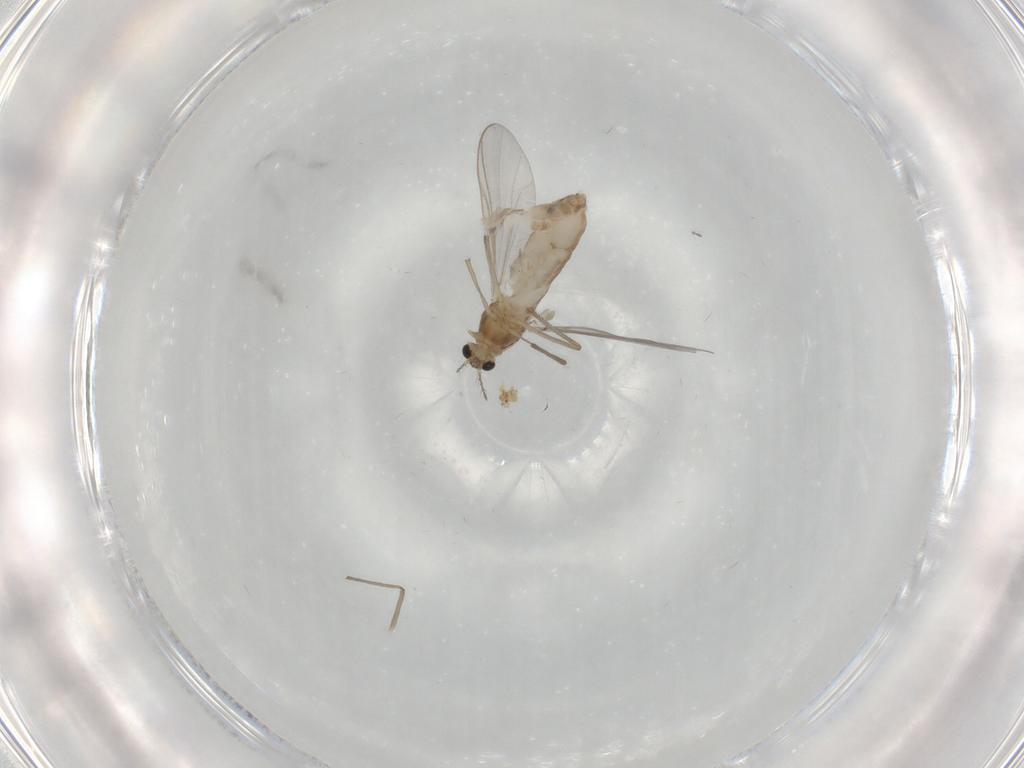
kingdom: Animalia
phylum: Arthropoda
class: Insecta
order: Diptera
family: Chironomidae
